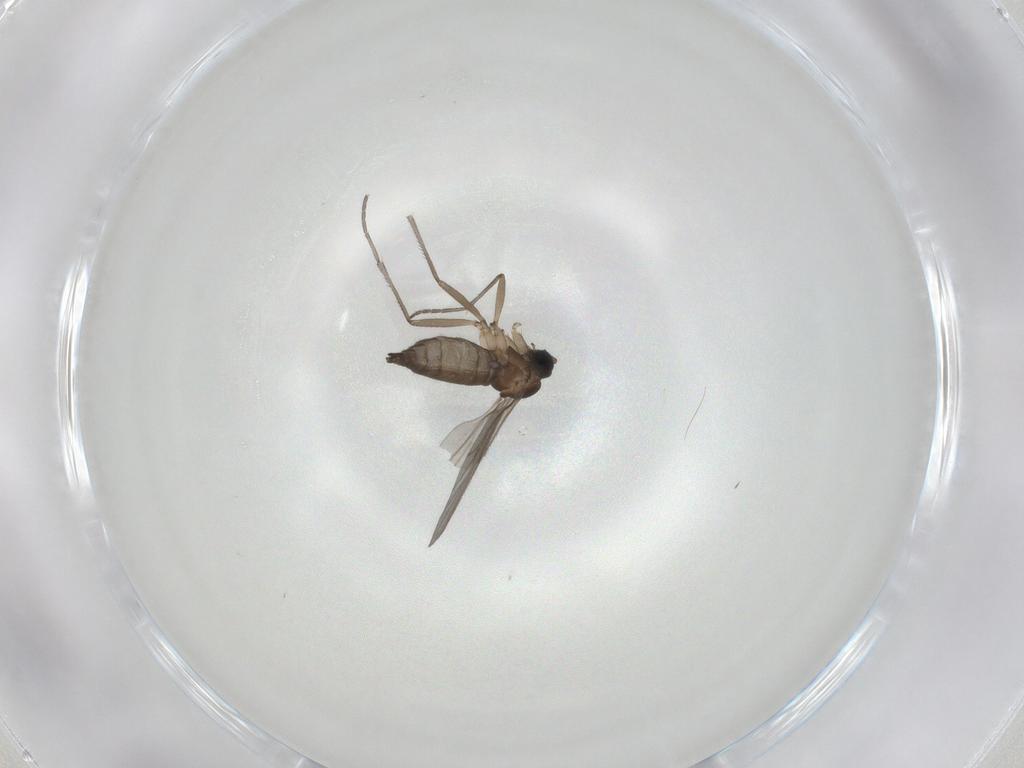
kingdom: Animalia
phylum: Arthropoda
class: Insecta
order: Diptera
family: Sciaridae
